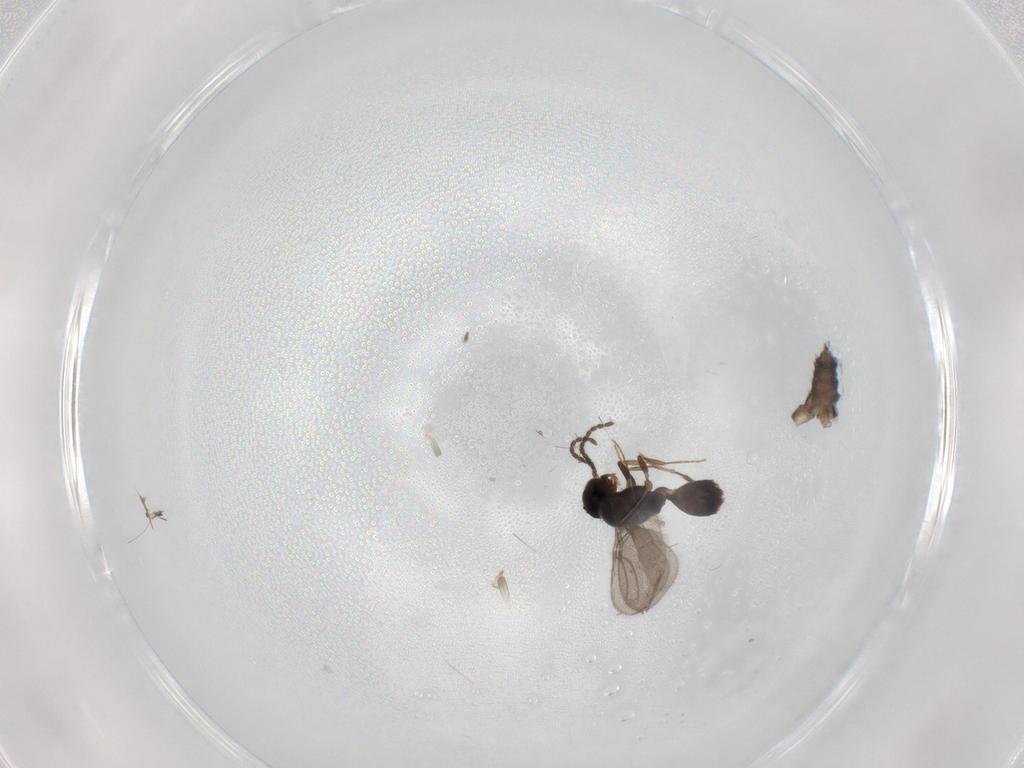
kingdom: Animalia
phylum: Arthropoda
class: Insecta
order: Hymenoptera
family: Bethylidae
